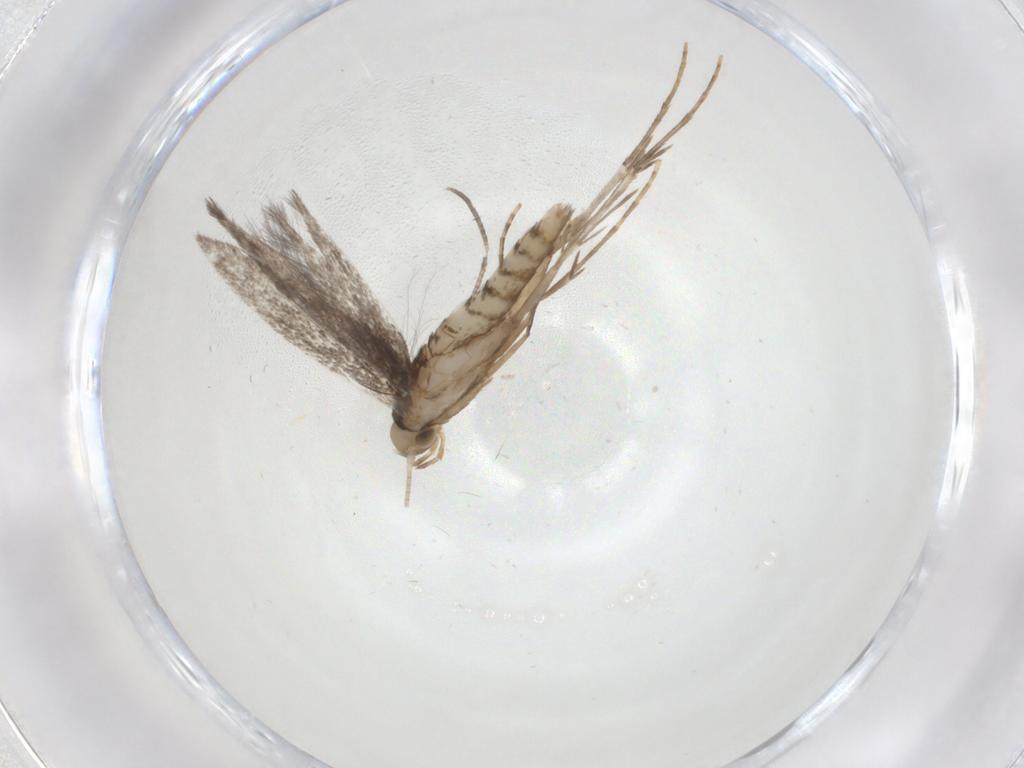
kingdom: Animalia
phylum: Arthropoda
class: Insecta
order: Lepidoptera
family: Gracillariidae
